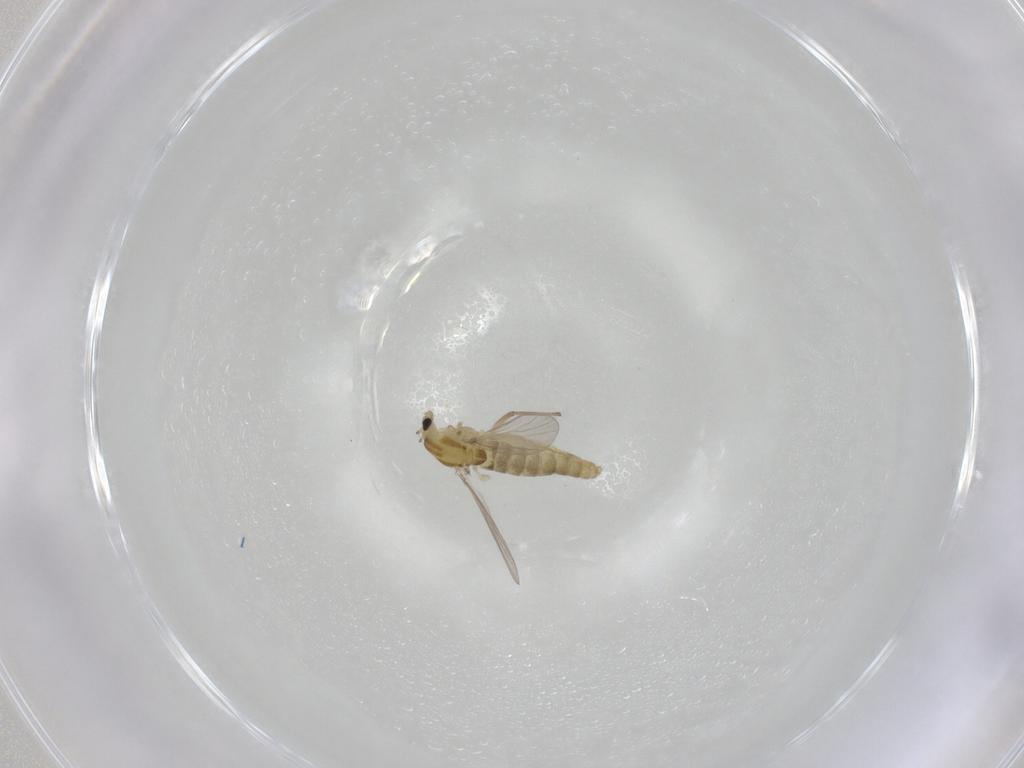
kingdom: Animalia
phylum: Arthropoda
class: Insecta
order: Diptera
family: Chironomidae
